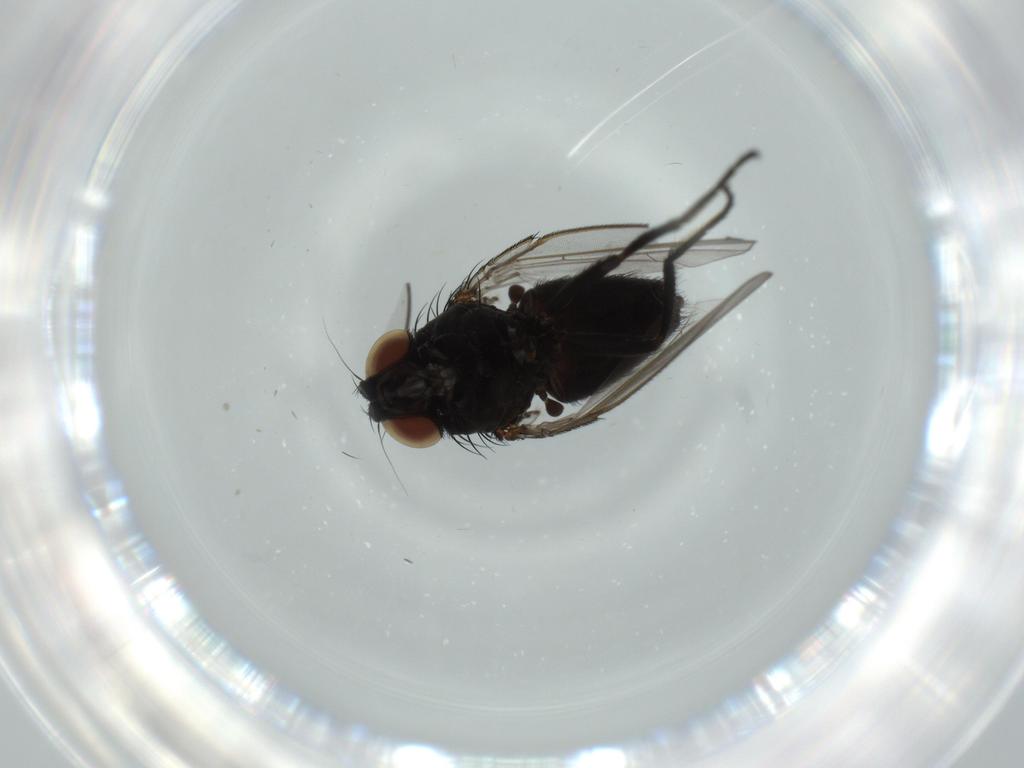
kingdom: Animalia
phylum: Arthropoda
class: Insecta
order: Diptera
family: Milichiidae
